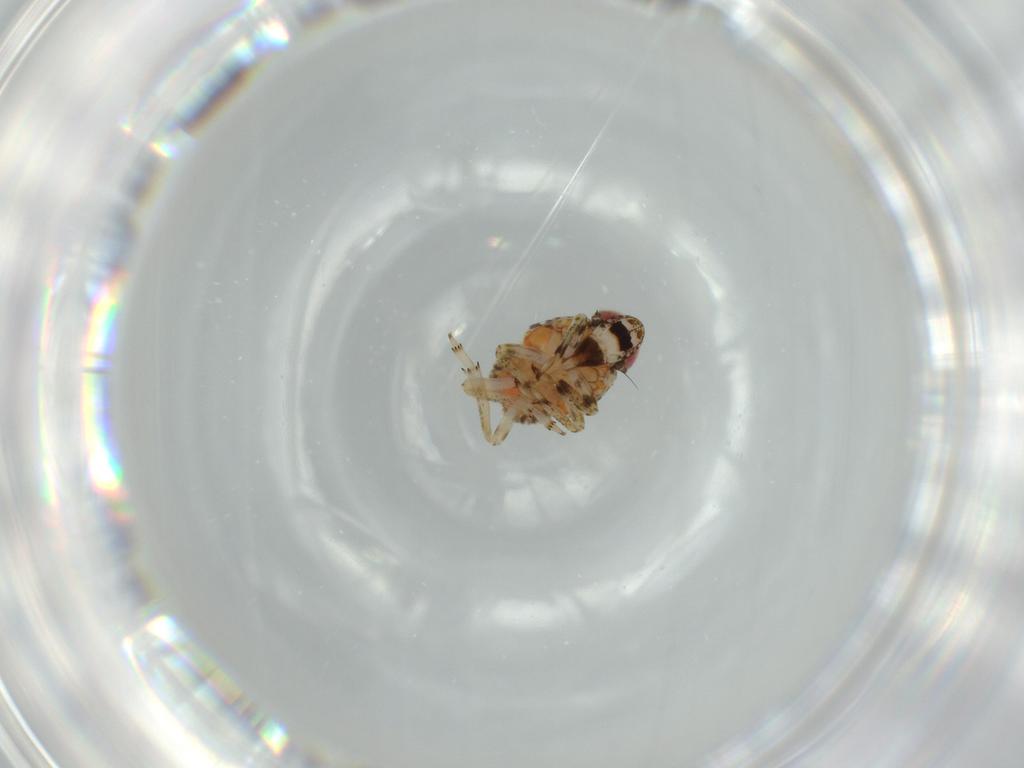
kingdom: Animalia
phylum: Arthropoda
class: Insecta
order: Hemiptera
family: Issidae
